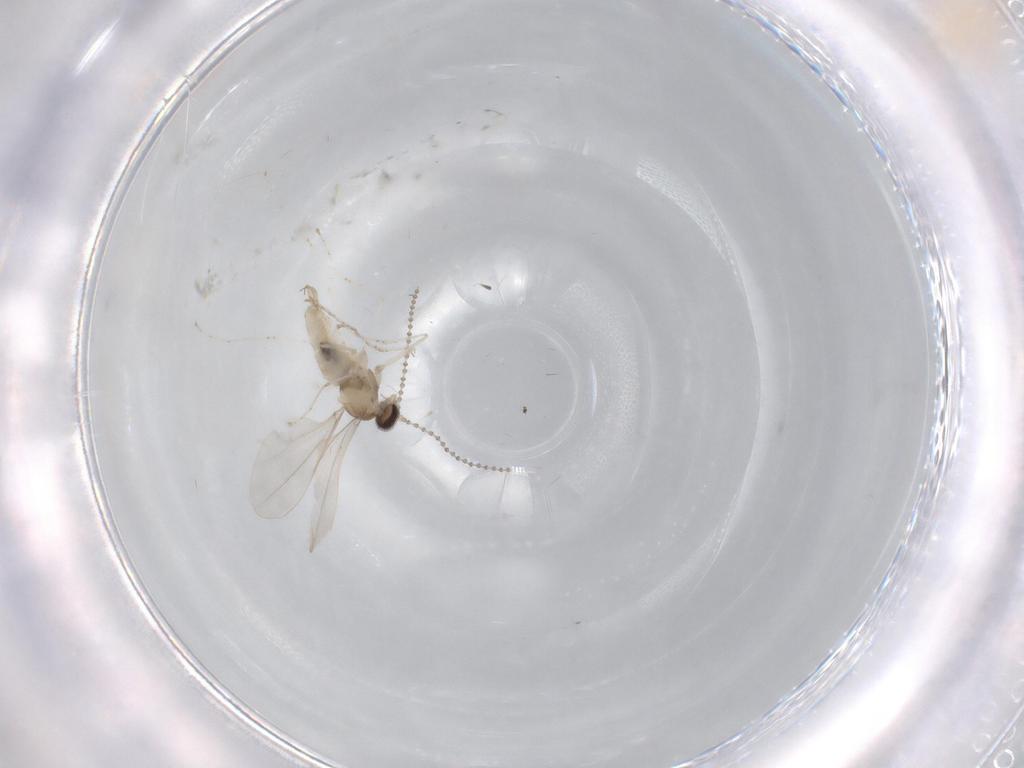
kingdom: Animalia
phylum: Arthropoda
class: Insecta
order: Diptera
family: Cecidomyiidae
